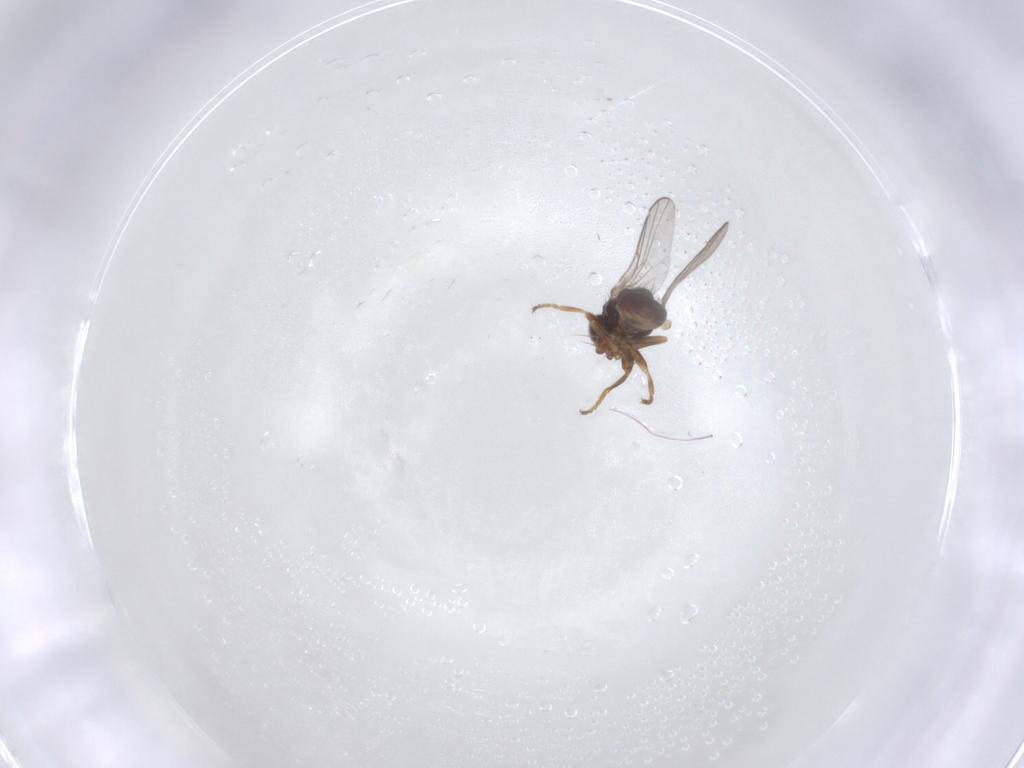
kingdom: Animalia
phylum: Arthropoda
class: Insecta
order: Diptera
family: Chloropidae
